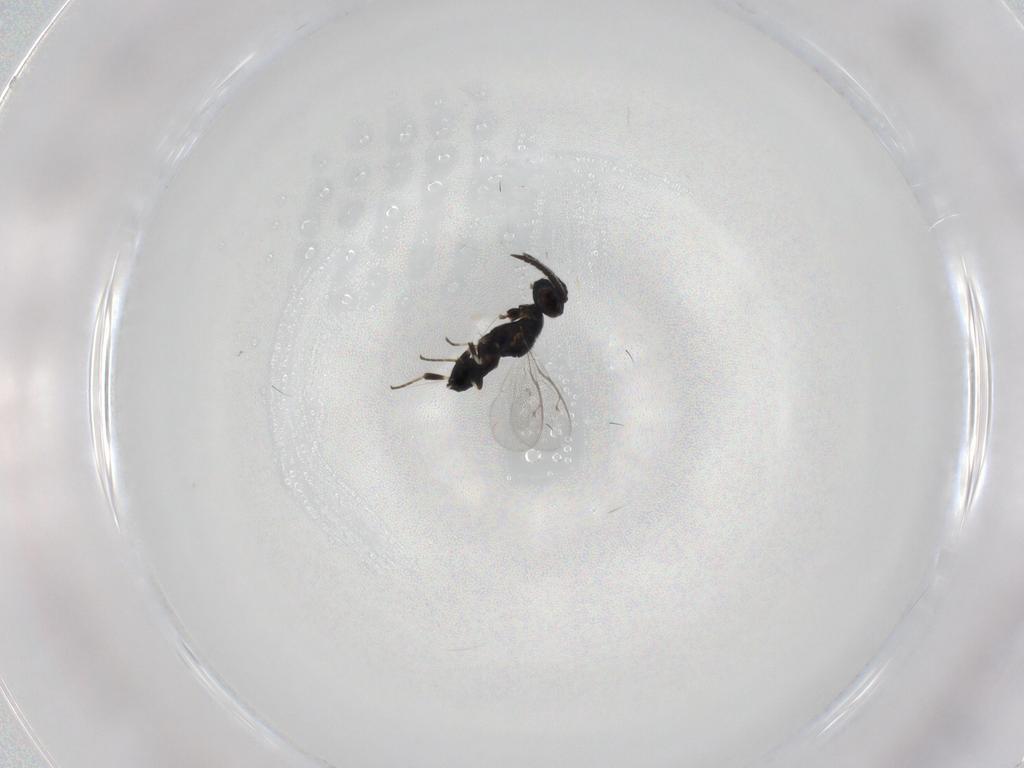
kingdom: Animalia
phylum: Arthropoda
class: Insecta
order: Hymenoptera
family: Eupelmidae
